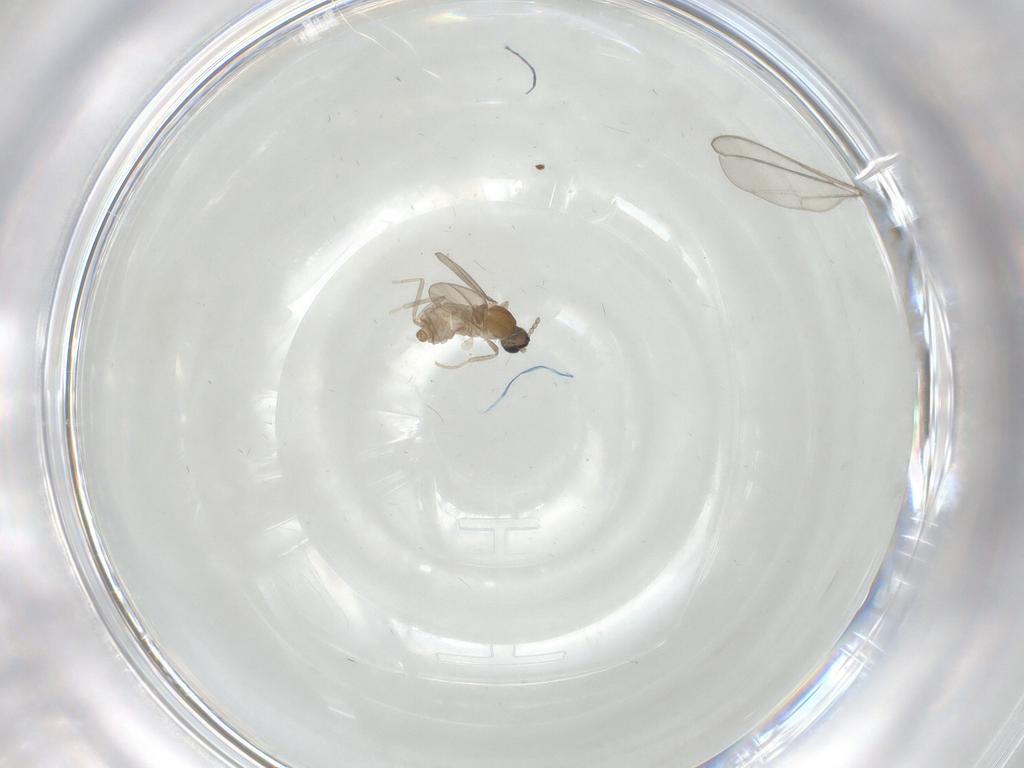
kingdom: Animalia
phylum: Arthropoda
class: Insecta
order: Diptera
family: Cecidomyiidae
